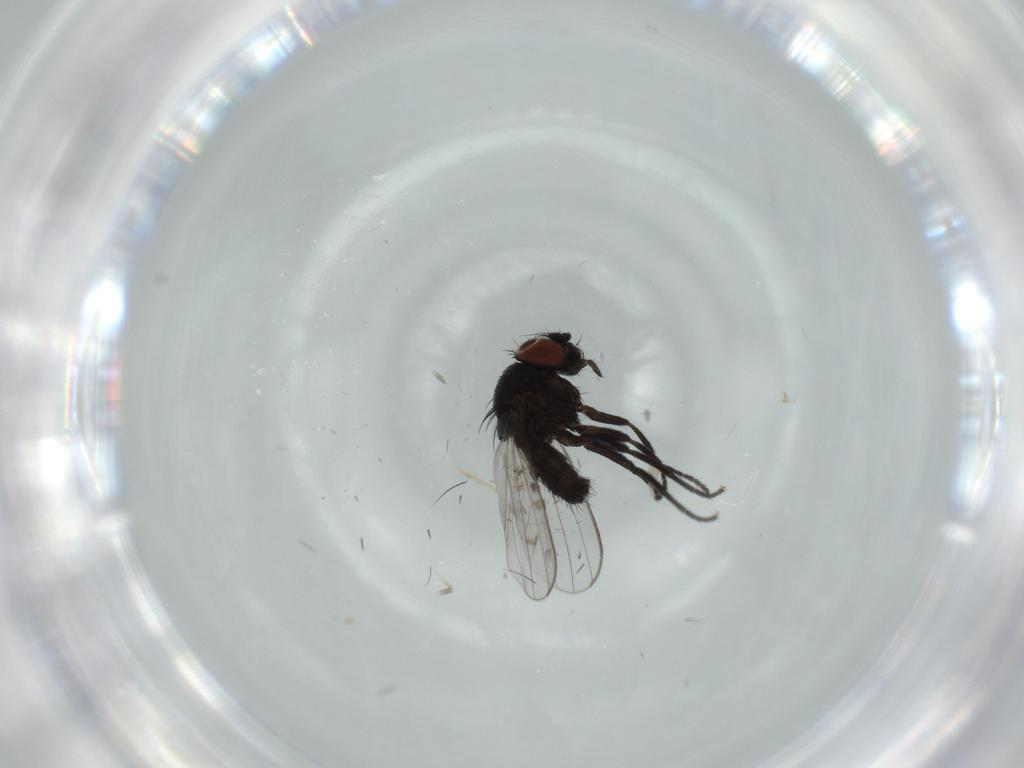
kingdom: Animalia
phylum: Arthropoda
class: Insecta
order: Diptera
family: Milichiidae
